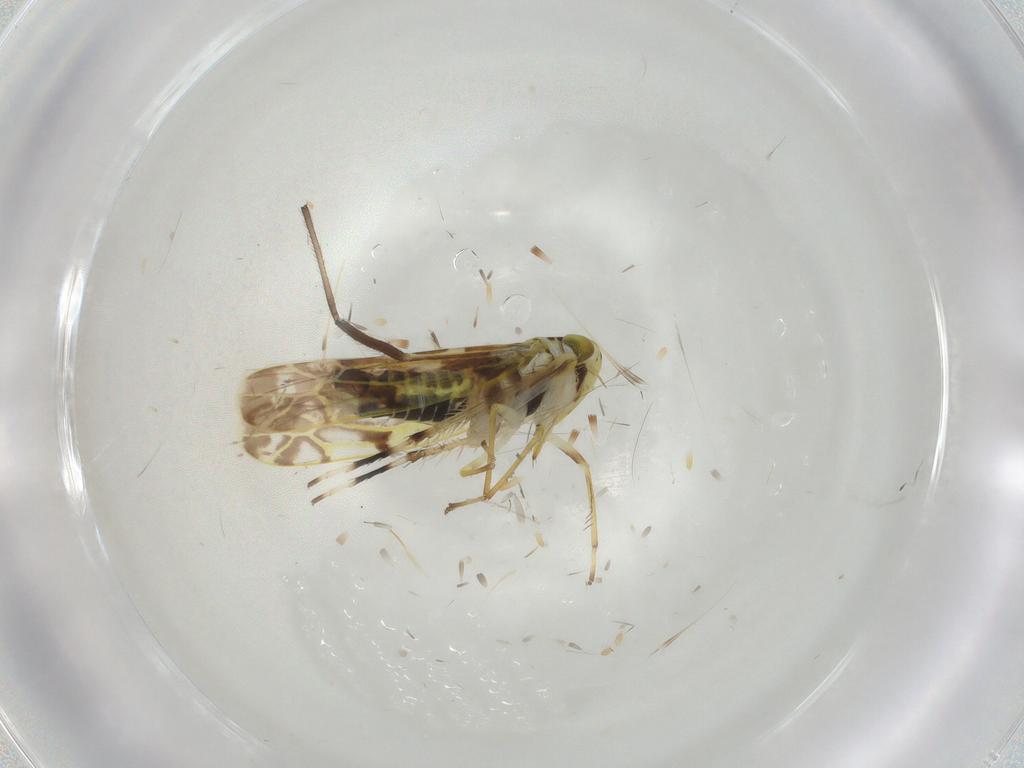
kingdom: Animalia
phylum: Arthropoda
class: Insecta
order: Hemiptera
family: Cicadellidae
